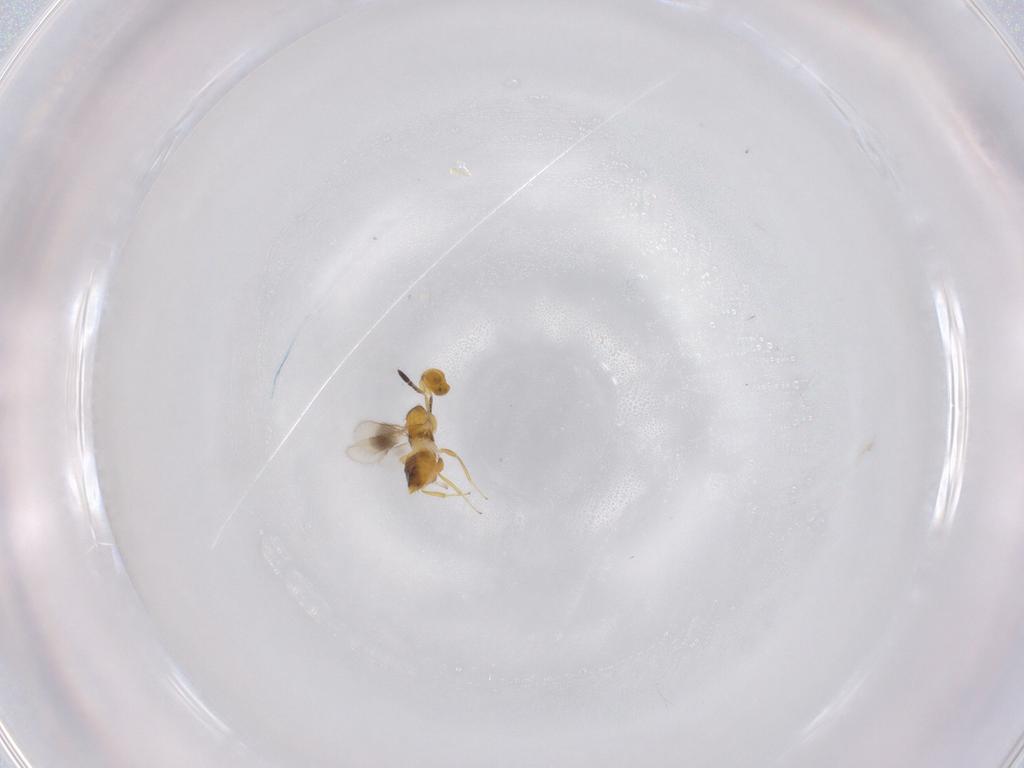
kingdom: Animalia
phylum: Arthropoda
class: Insecta
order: Hymenoptera
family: Encyrtidae
